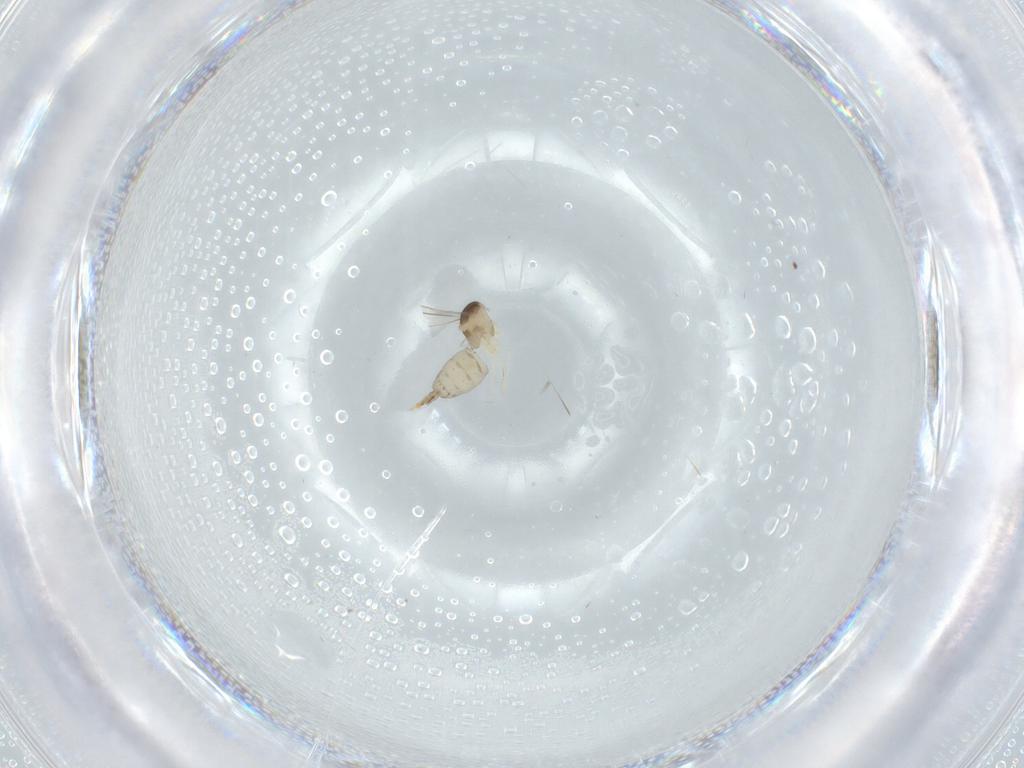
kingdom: Animalia
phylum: Arthropoda
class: Insecta
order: Diptera
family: Cecidomyiidae
